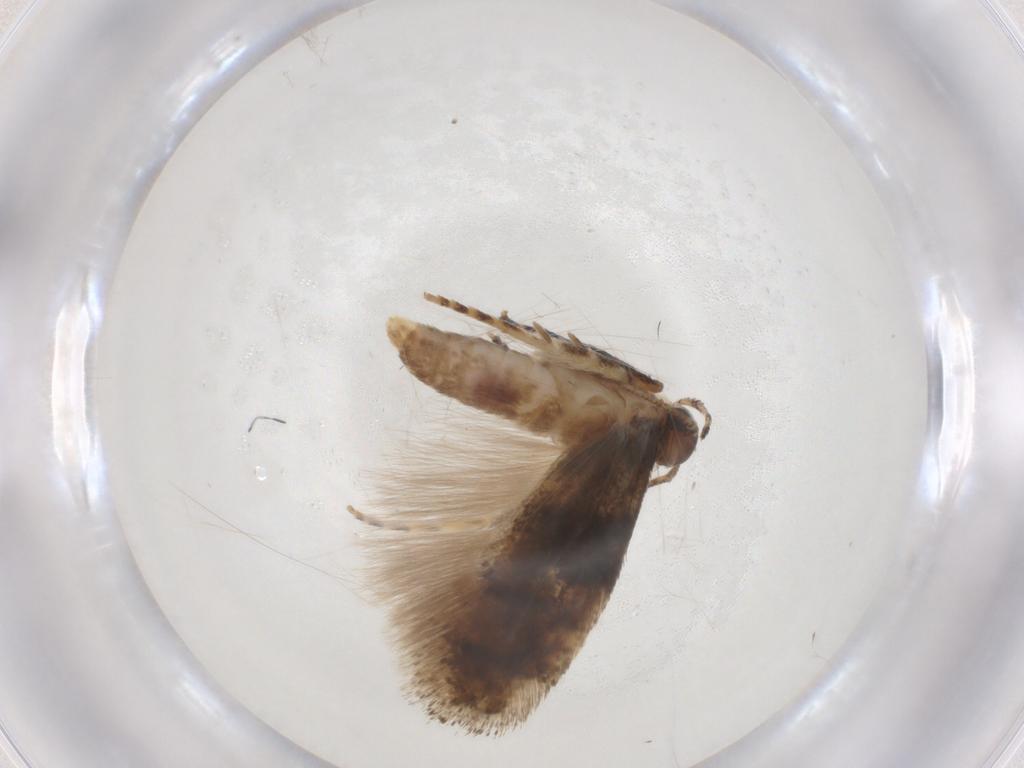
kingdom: Animalia
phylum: Arthropoda
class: Insecta
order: Lepidoptera
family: Gelechiidae
